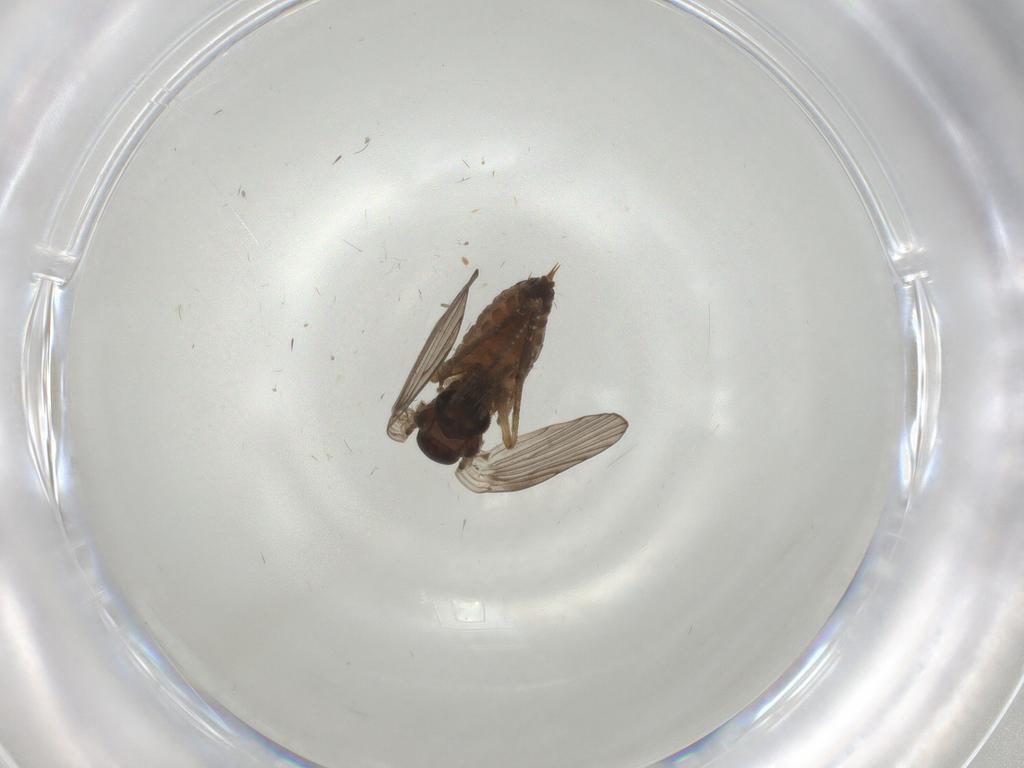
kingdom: Animalia
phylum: Arthropoda
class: Insecta
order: Diptera
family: Psychodidae
